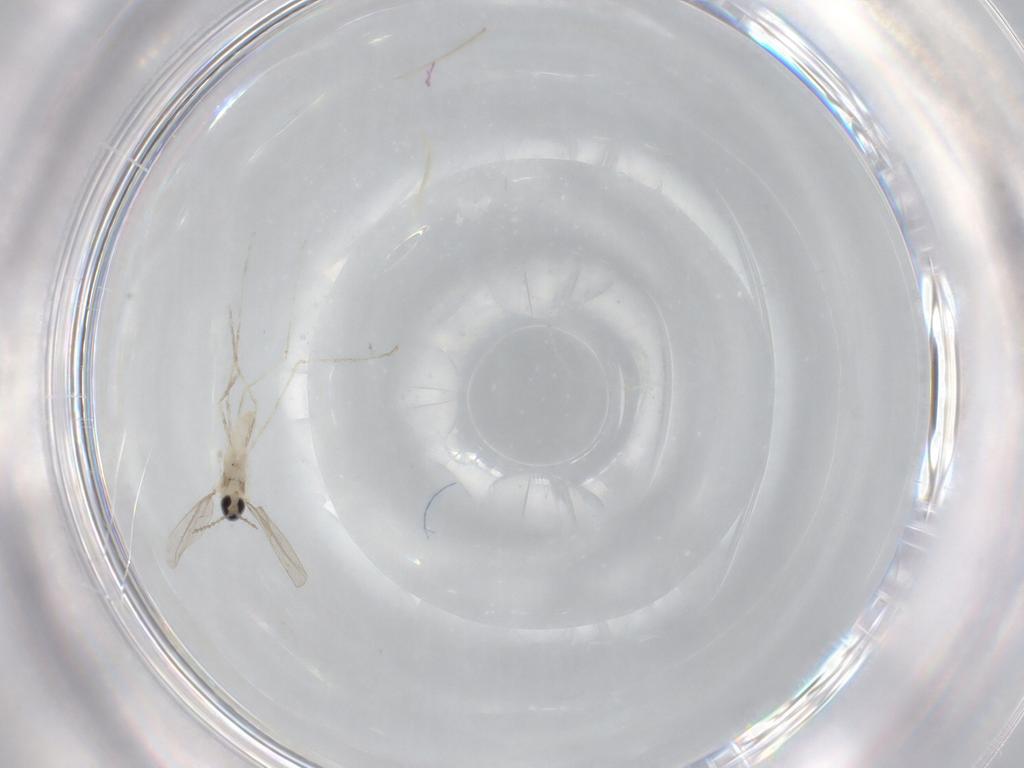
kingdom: Animalia
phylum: Arthropoda
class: Insecta
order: Diptera
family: Cecidomyiidae
